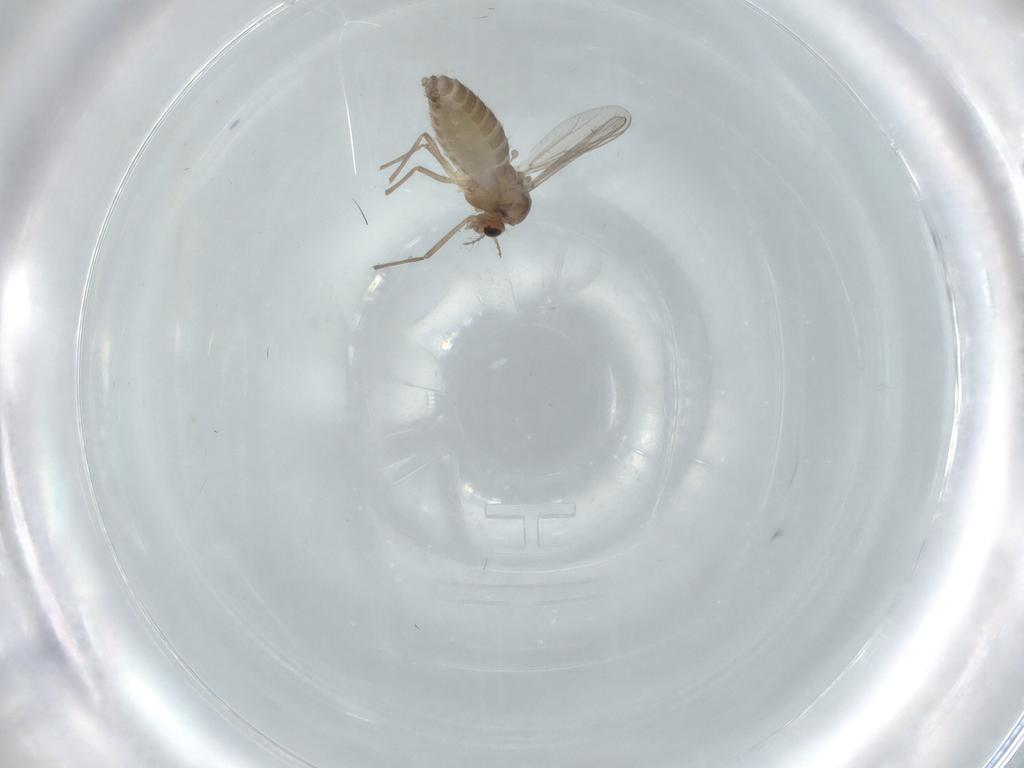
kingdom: Animalia
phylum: Arthropoda
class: Insecta
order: Diptera
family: Chironomidae
